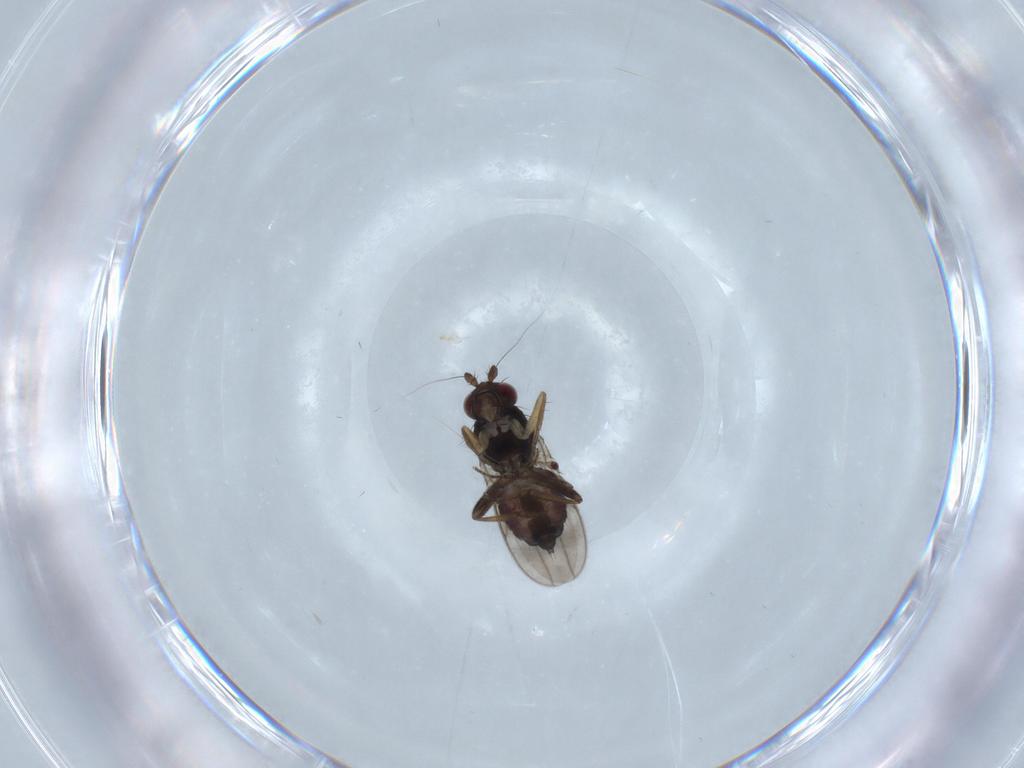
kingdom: Animalia
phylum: Arthropoda
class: Insecta
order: Diptera
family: Sphaeroceridae
